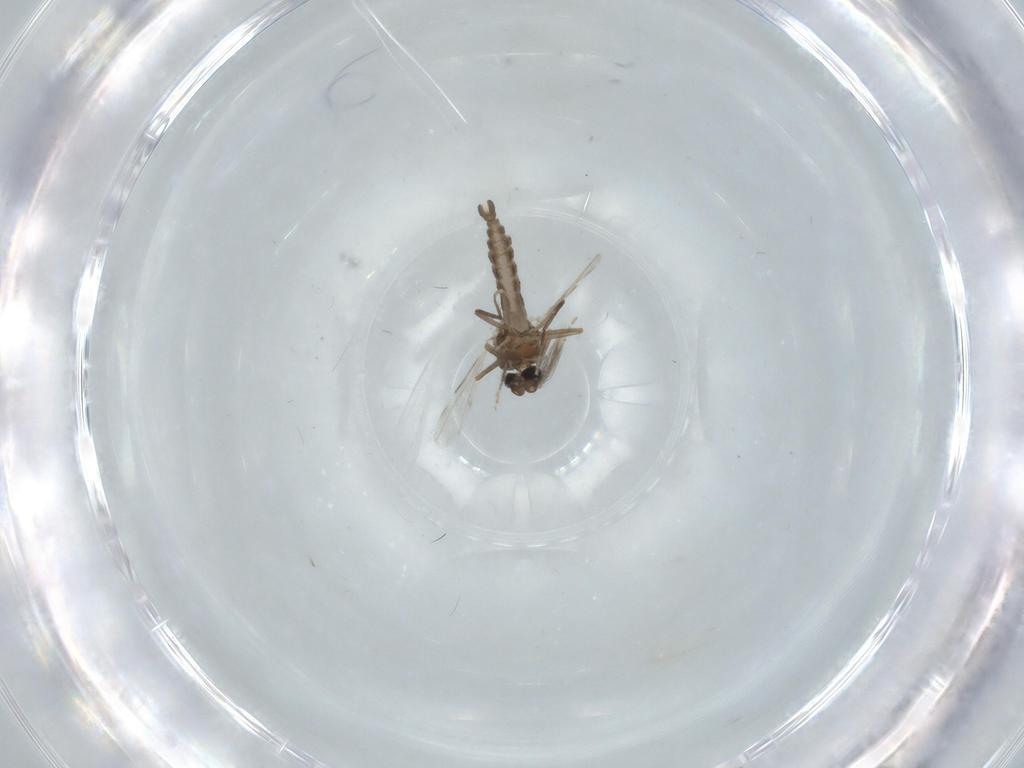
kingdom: Animalia
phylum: Arthropoda
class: Insecta
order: Diptera
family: Ceratopogonidae
